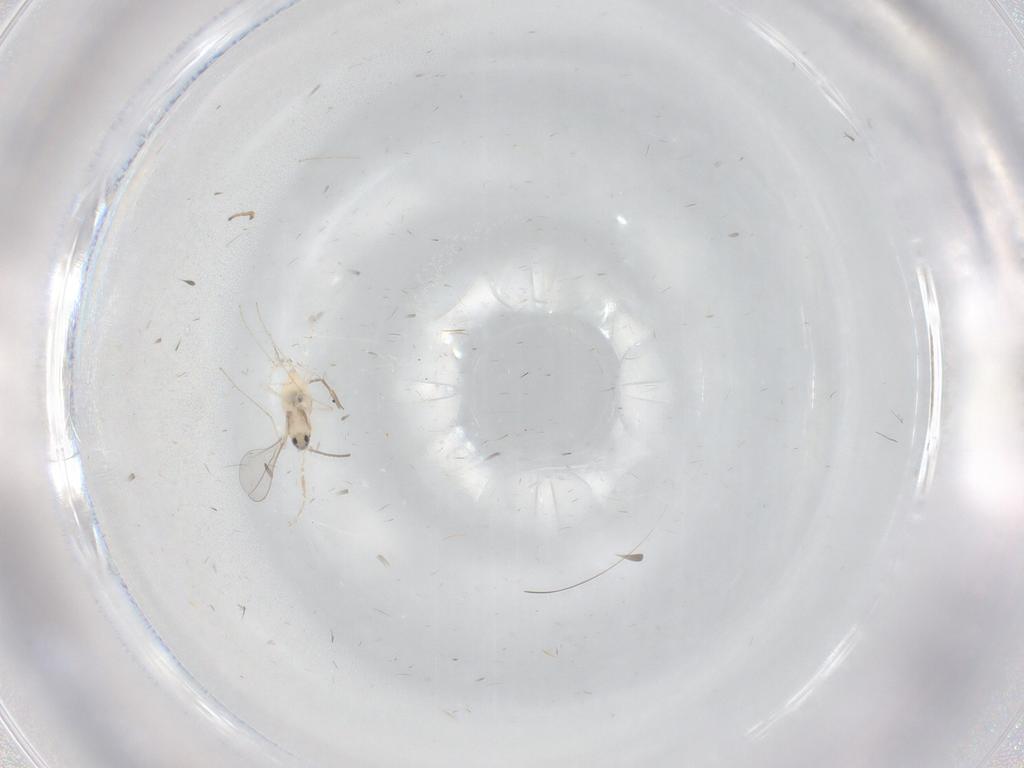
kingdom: Animalia
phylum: Arthropoda
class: Insecta
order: Diptera
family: Cecidomyiidae
